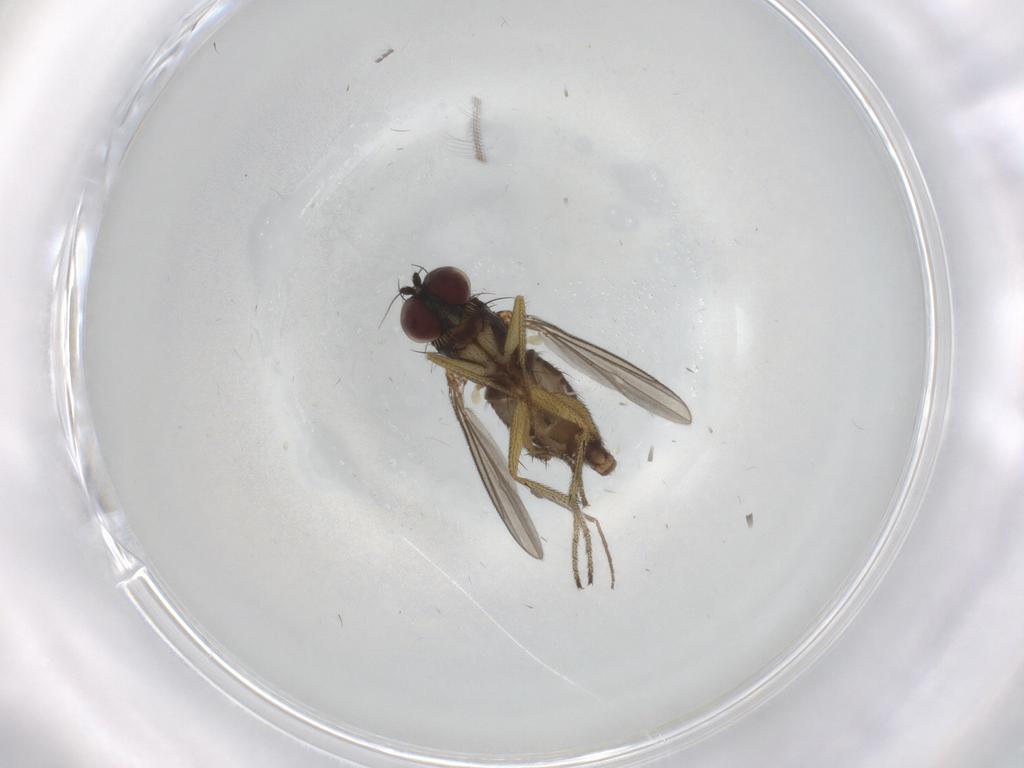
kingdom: Animalia
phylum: Arthropoda
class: Insecta
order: Diptera
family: Dolichopodidae
